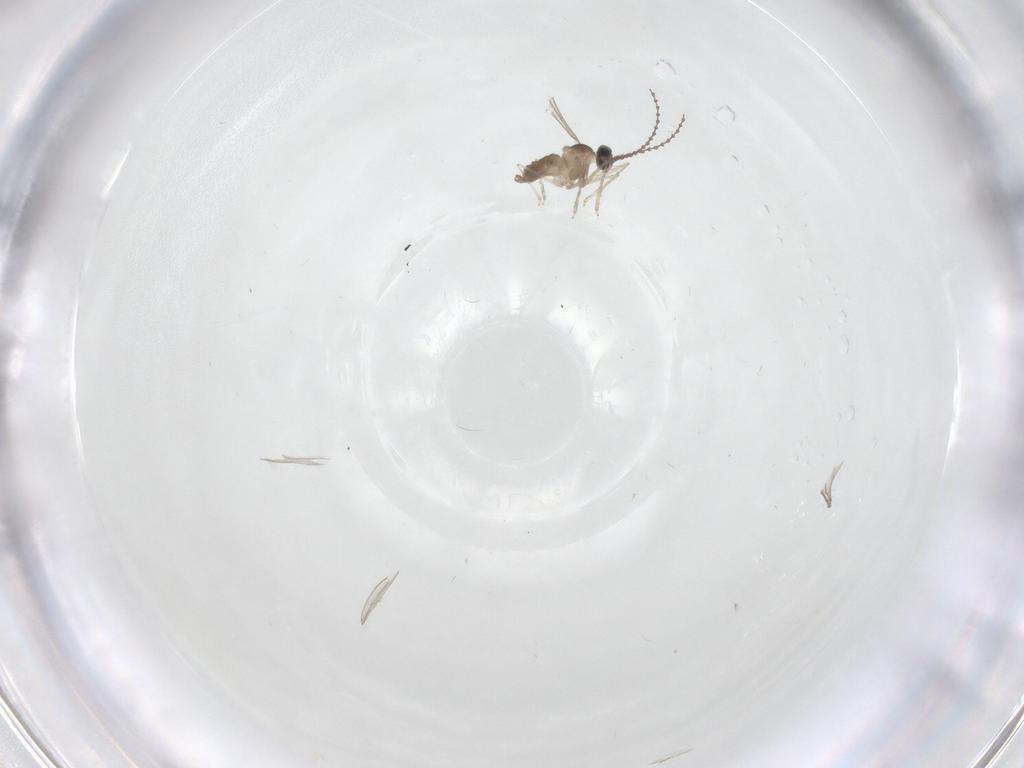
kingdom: Animalia
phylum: Arthropoda
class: Insecta
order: Diptera
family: Cecidomyiidae
